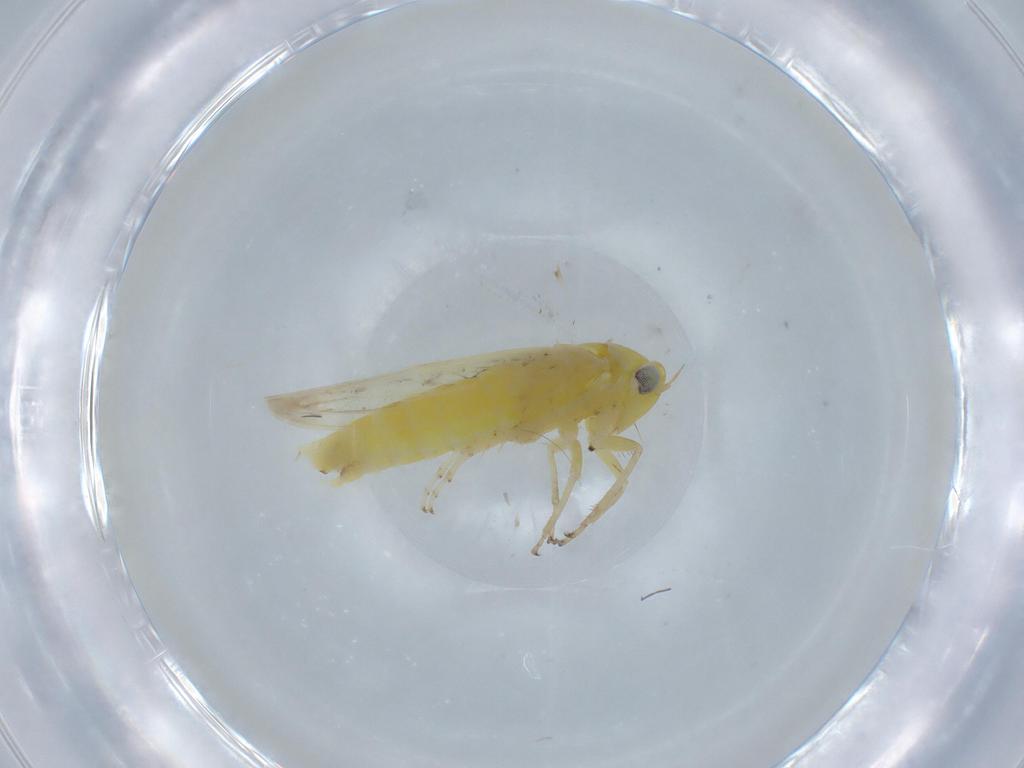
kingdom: Animalia
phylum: Arthropoda
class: Insecta
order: Hemiptera
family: Cicadellidae
